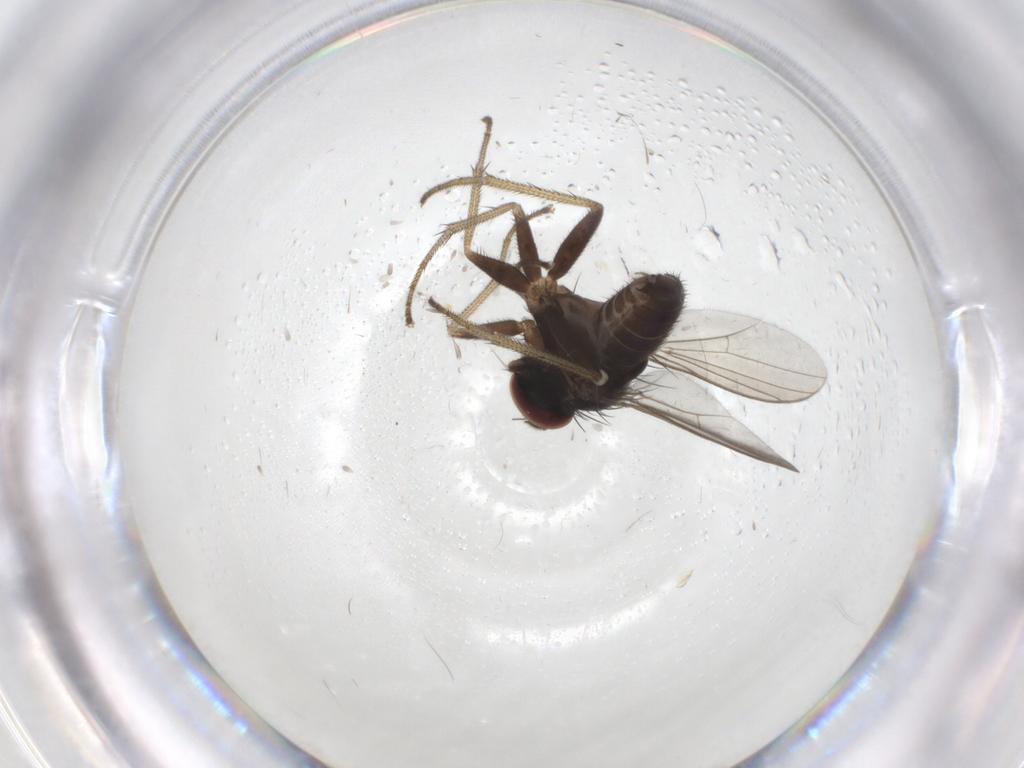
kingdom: Animalia
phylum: Arthropoda
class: Insecta
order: Diptera
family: Dolichopodidae
